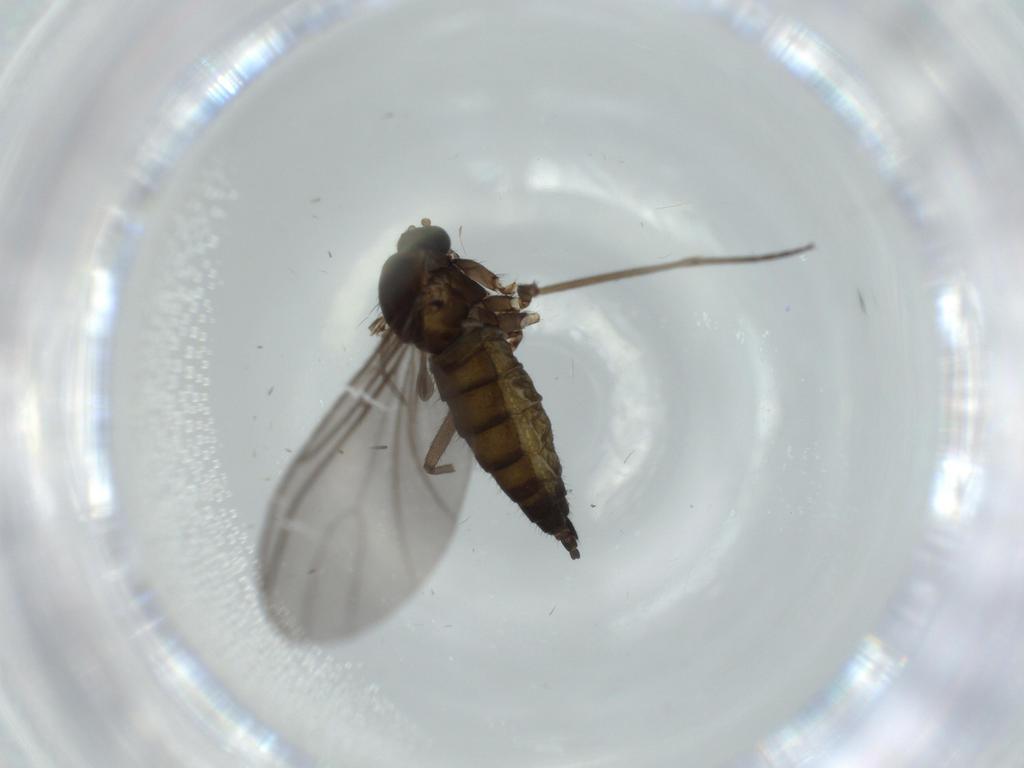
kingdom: Animalia
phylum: Arthropoda
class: Insecta
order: Diptera
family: Sciaridae
